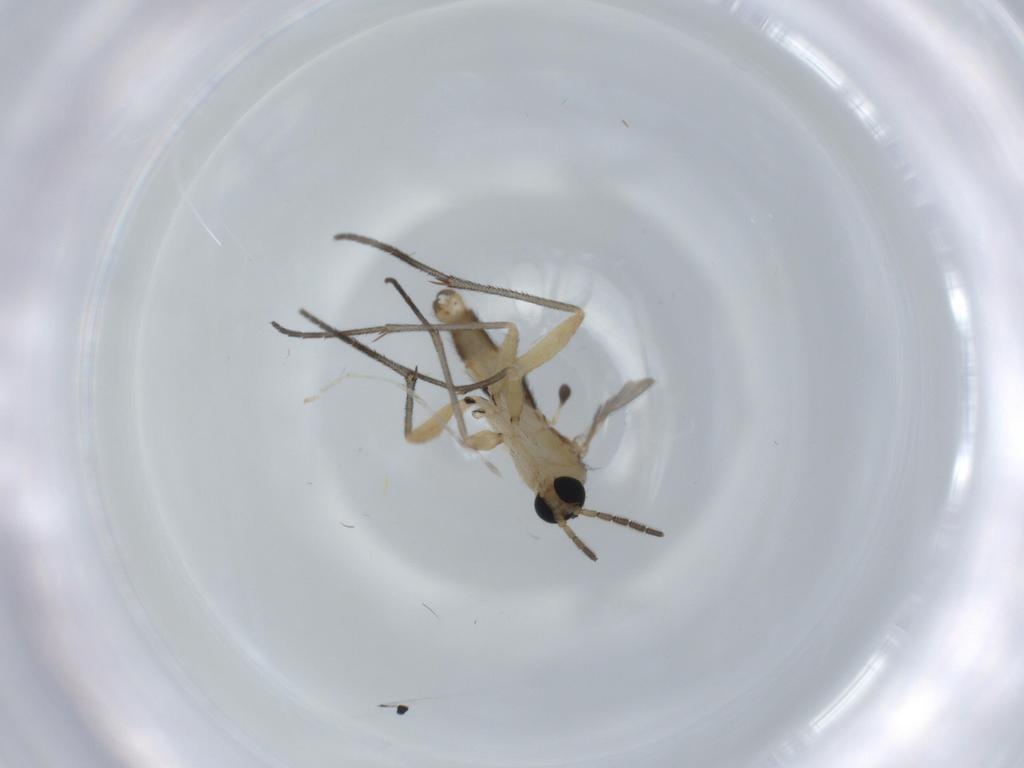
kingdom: Animalia
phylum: Arthropoda
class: Insecta
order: Diptera
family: Sciaridae
